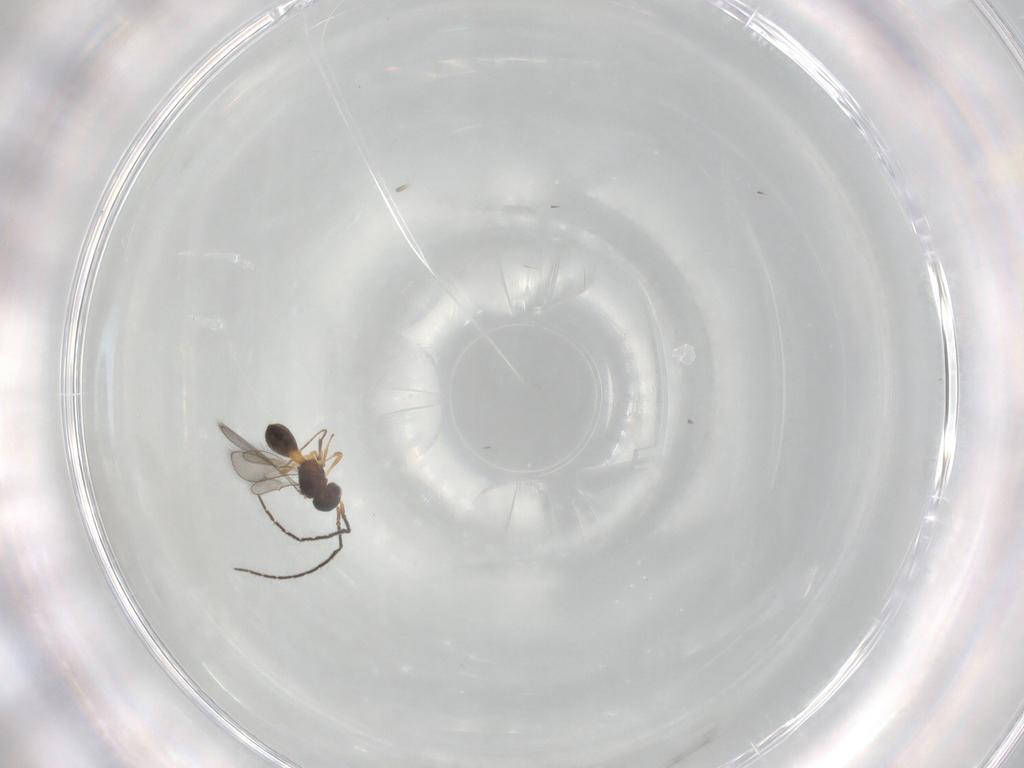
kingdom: Animalia
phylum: Arthropoda
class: Insecta
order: Hymenoptera
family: Scelionidae
